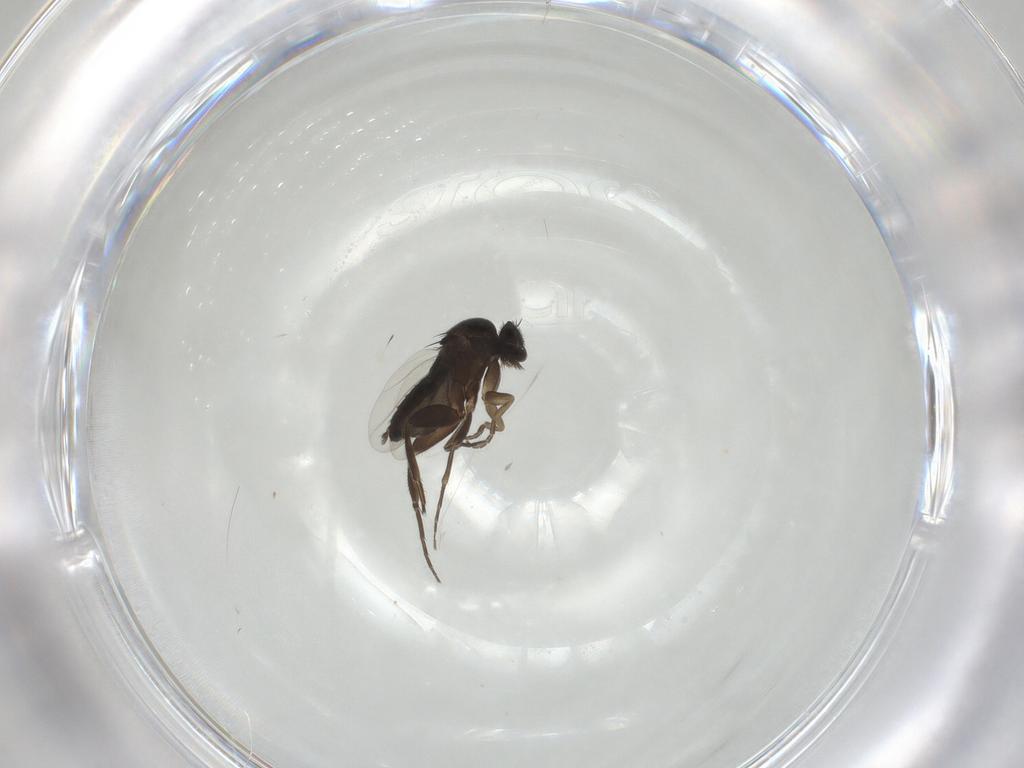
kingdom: Animalia
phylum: Arthropoda
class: Insecta
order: Diptera
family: Phoridae
